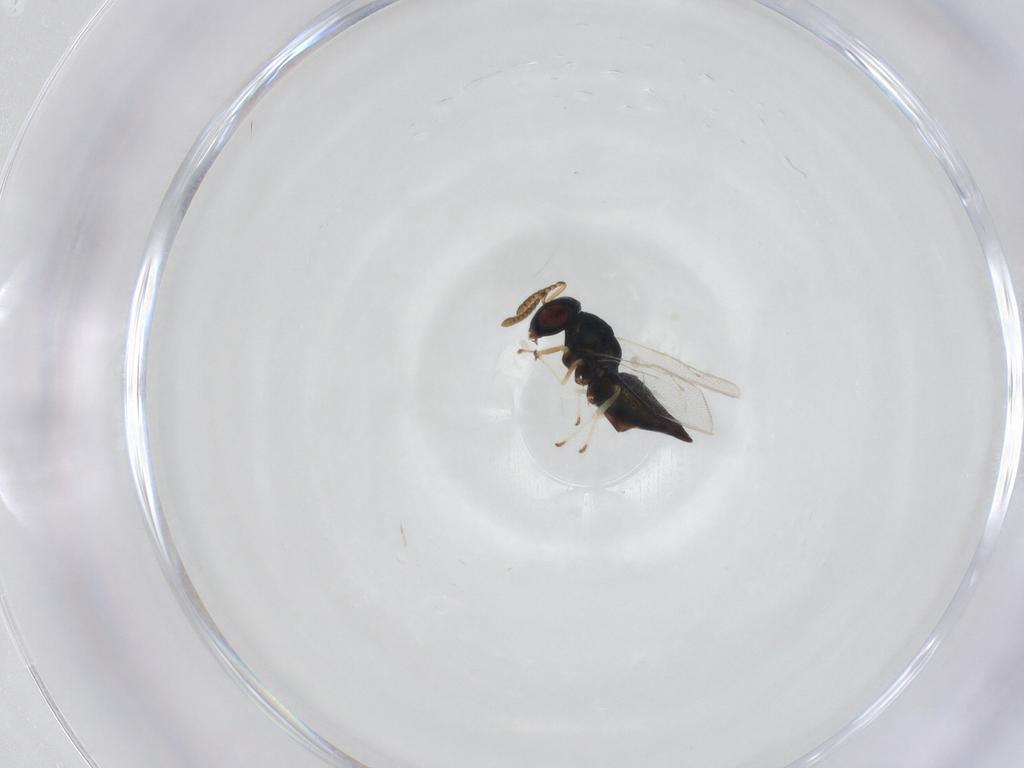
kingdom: Animalia
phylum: Arthropoda
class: Insecta
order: Hymenoptera
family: Pteromalidae
